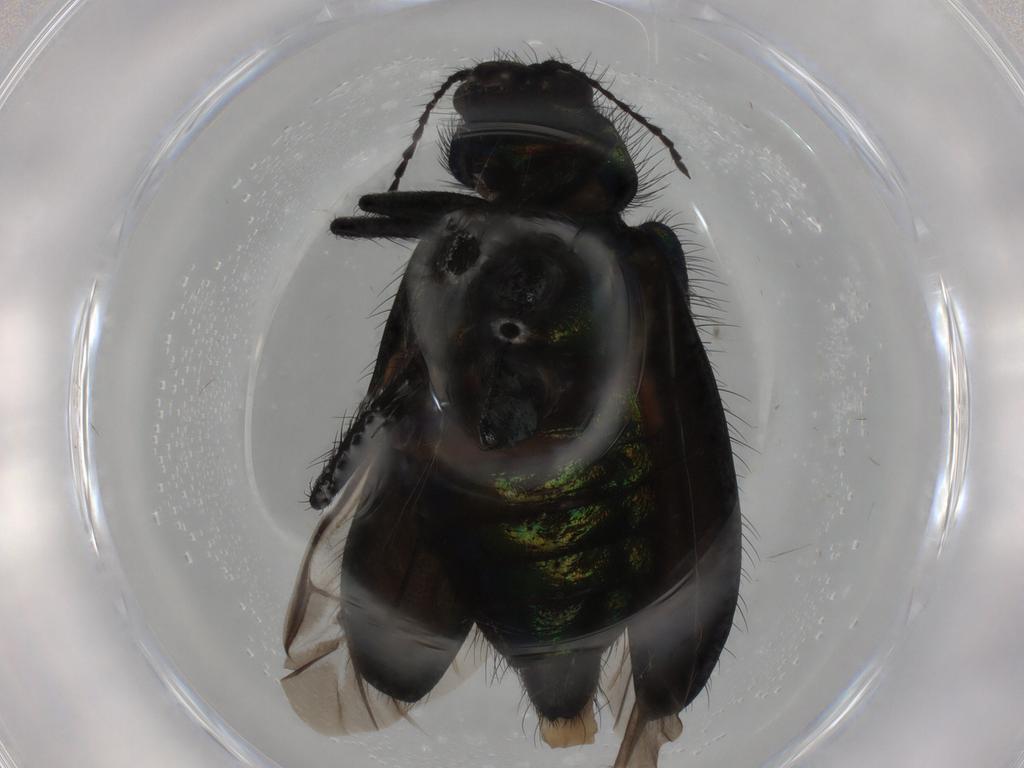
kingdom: Animalia
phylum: Arthropoda
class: Insecta
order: Coleoptera
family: Melyridae
